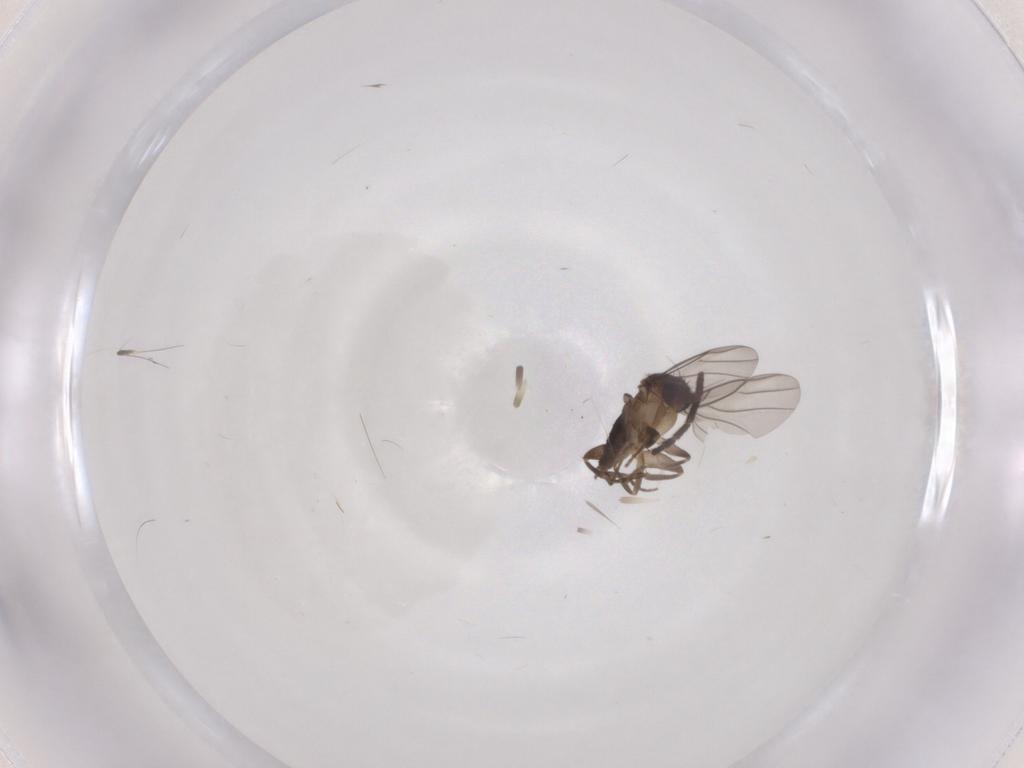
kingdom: Animalia
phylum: Arthropoda
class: Insecta
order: Diptera
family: Phoridae
